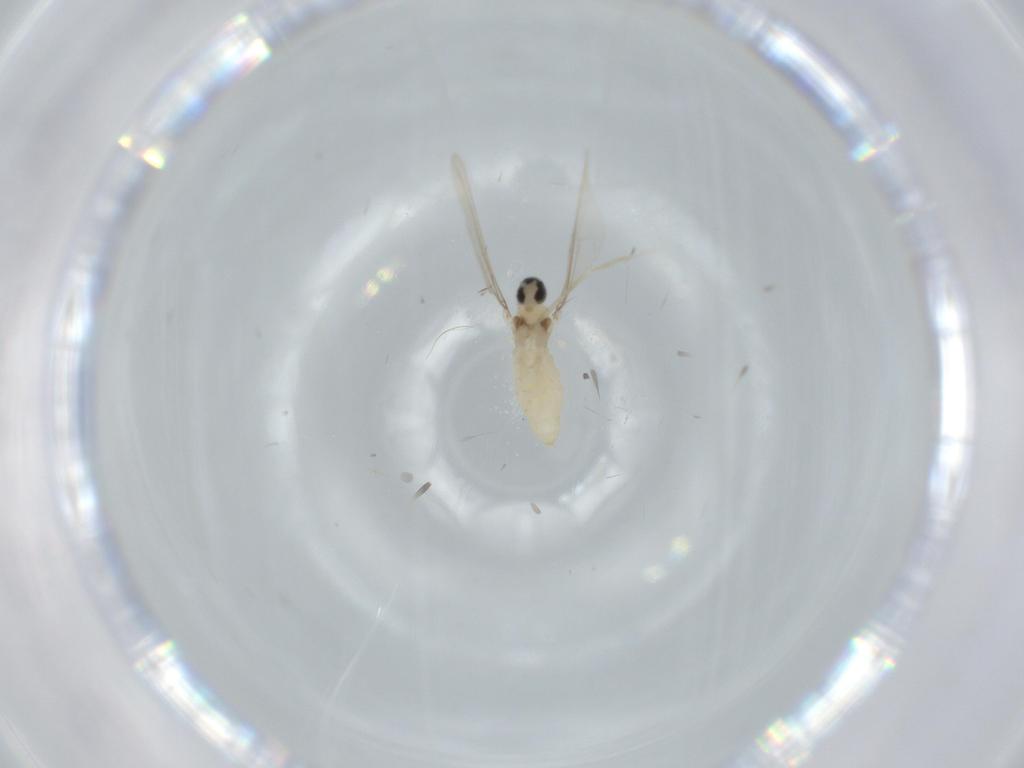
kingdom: Animalia
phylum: Arthropoda
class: Insecta
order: Diptera
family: Cecidomyiidae
